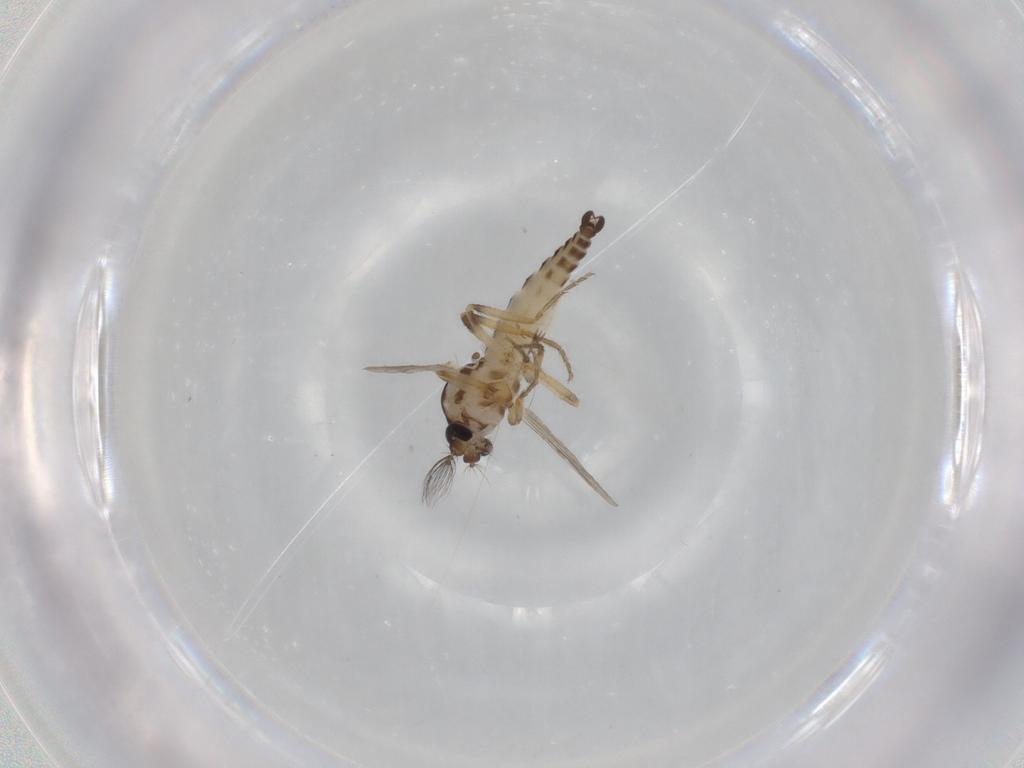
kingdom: Animalia
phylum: Arthropoda
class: Insecta
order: Diptera
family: Ceratopogonidae
